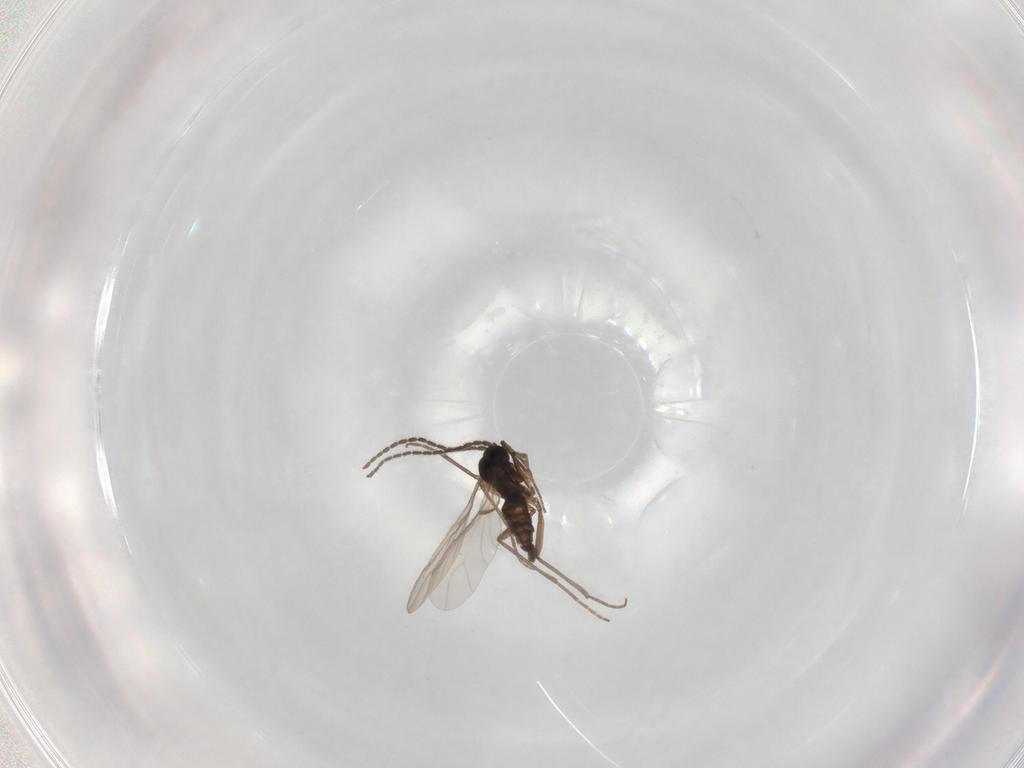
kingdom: Animalia
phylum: Arthropoda
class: Insecta
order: Diptera
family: Sciaridae
